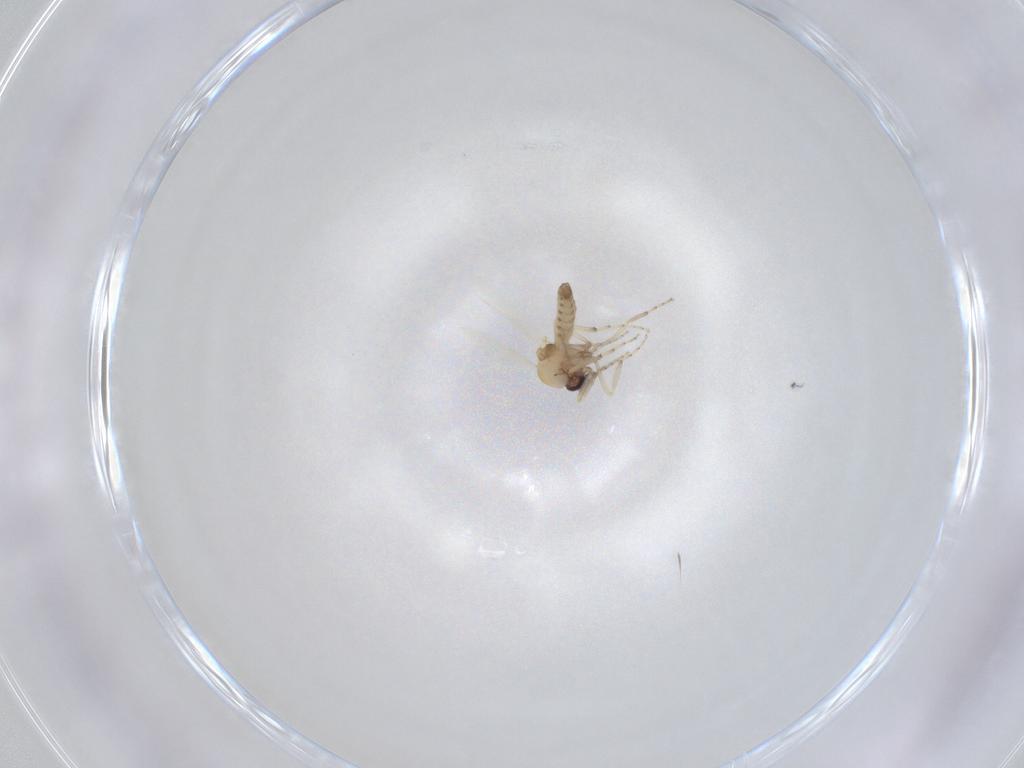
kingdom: Animalia
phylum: Arthropoda
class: Insecta
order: Diptera
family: Ceratopogonidae
